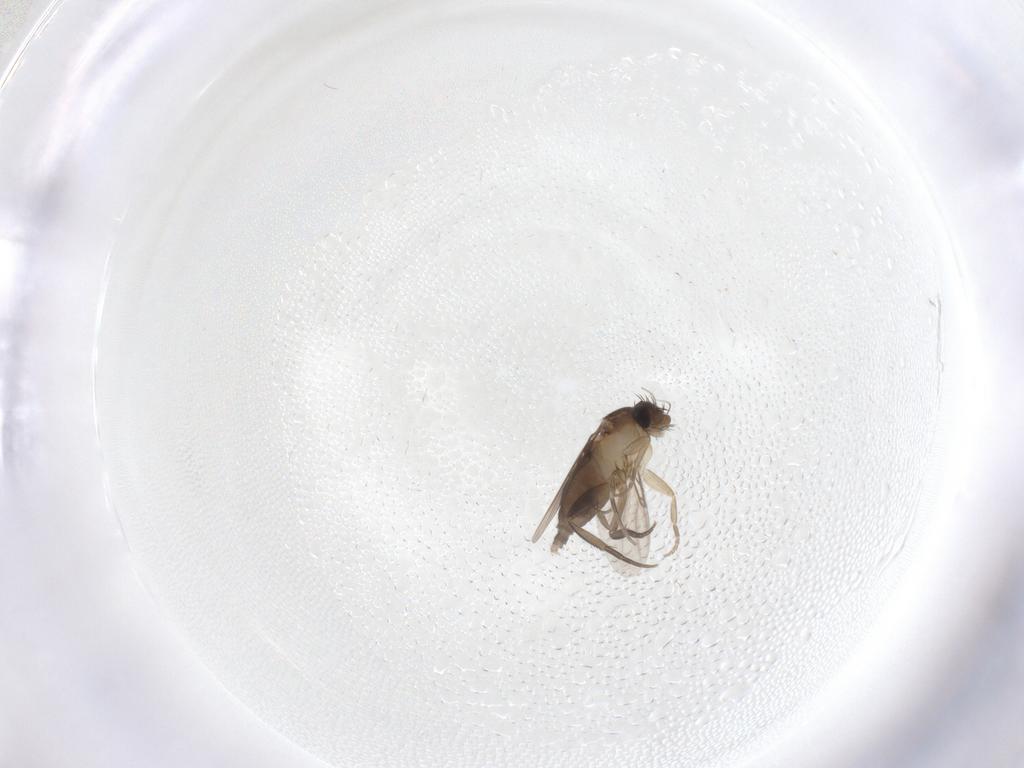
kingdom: Animalia
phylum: Arthropoda
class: Insecta
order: Diptera
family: Phoridae
